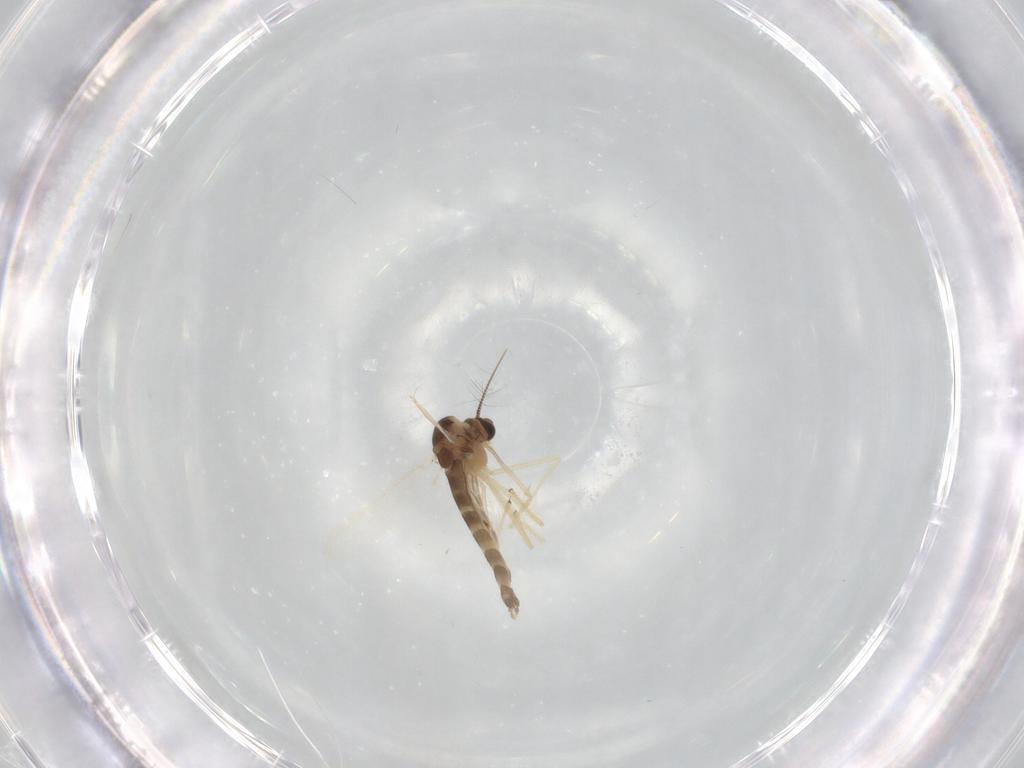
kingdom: Animalia
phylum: Arthropoda
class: Insecta
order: Diptera
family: Chironomidae
